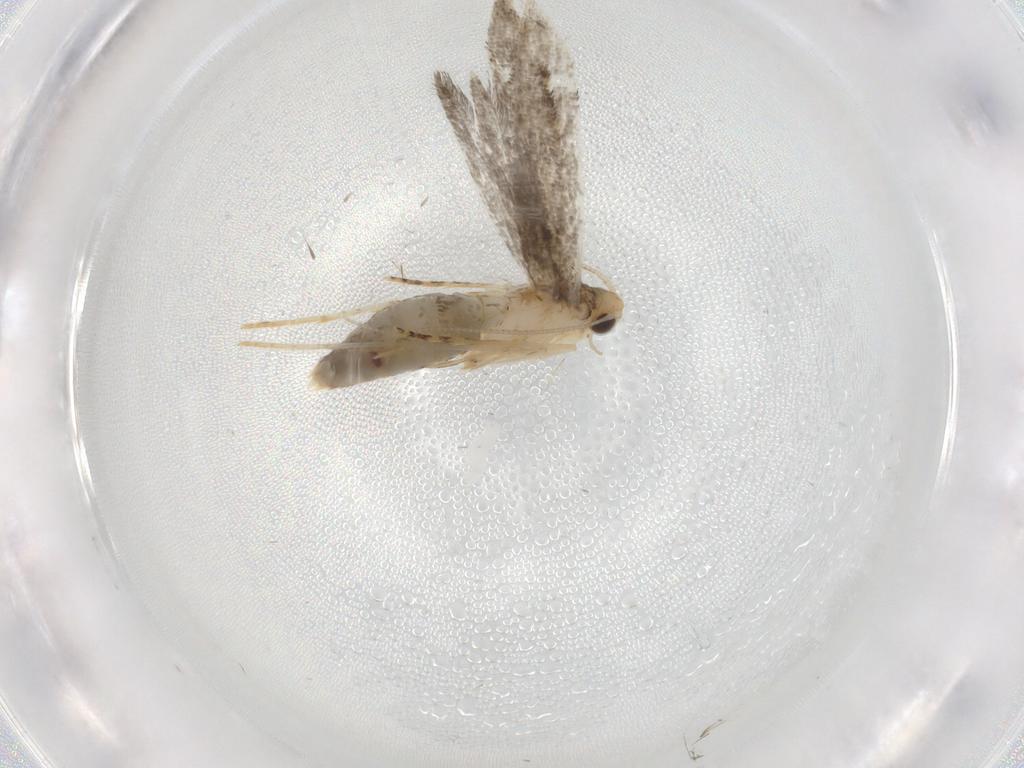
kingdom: Animalia
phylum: Arthropoda
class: Insecta
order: Lepidoptera
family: Tineidae
